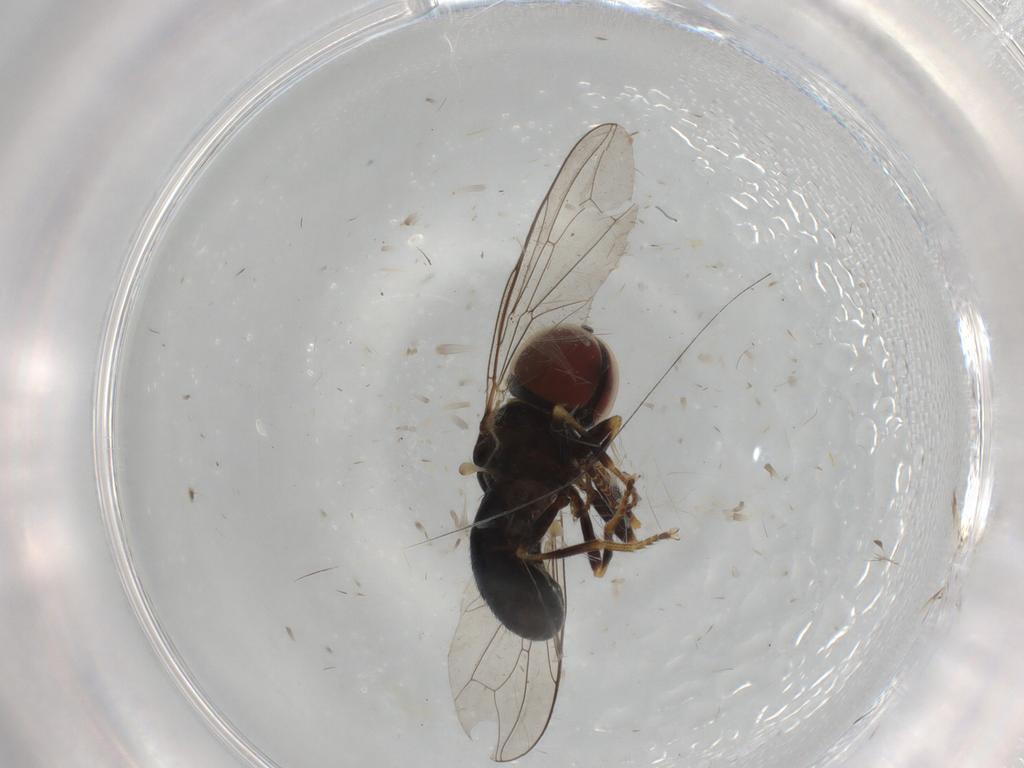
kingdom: Animalia
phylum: Arthropoda
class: Insecta
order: Diptera
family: Pipunculidae
